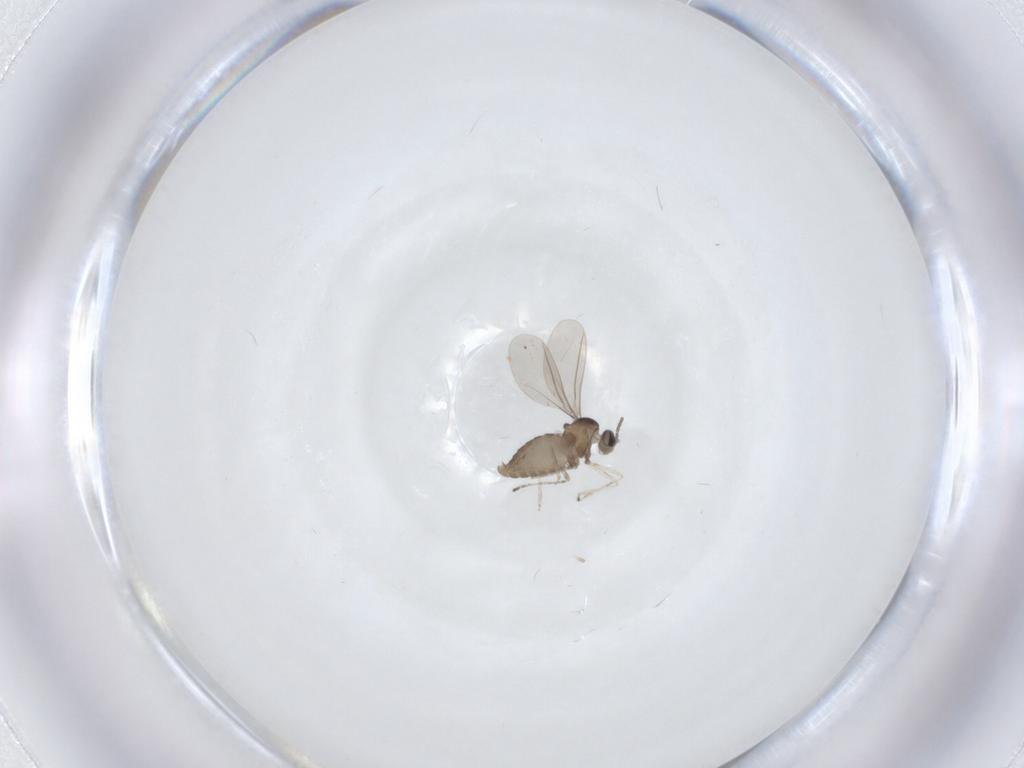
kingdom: Animalia
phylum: Arthropoda
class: Insecta
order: Diptera
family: Cecidomyiidae
